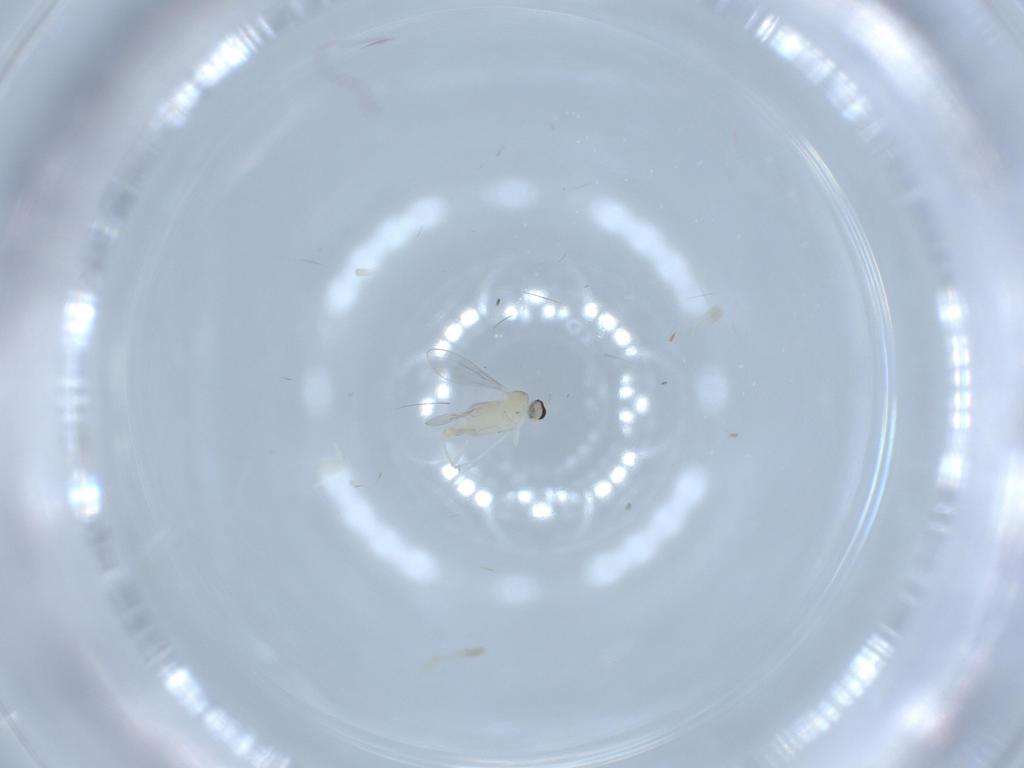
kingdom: Animalia
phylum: Arthropoda
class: Insecta
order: Diptera
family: Cecidomyiidae
